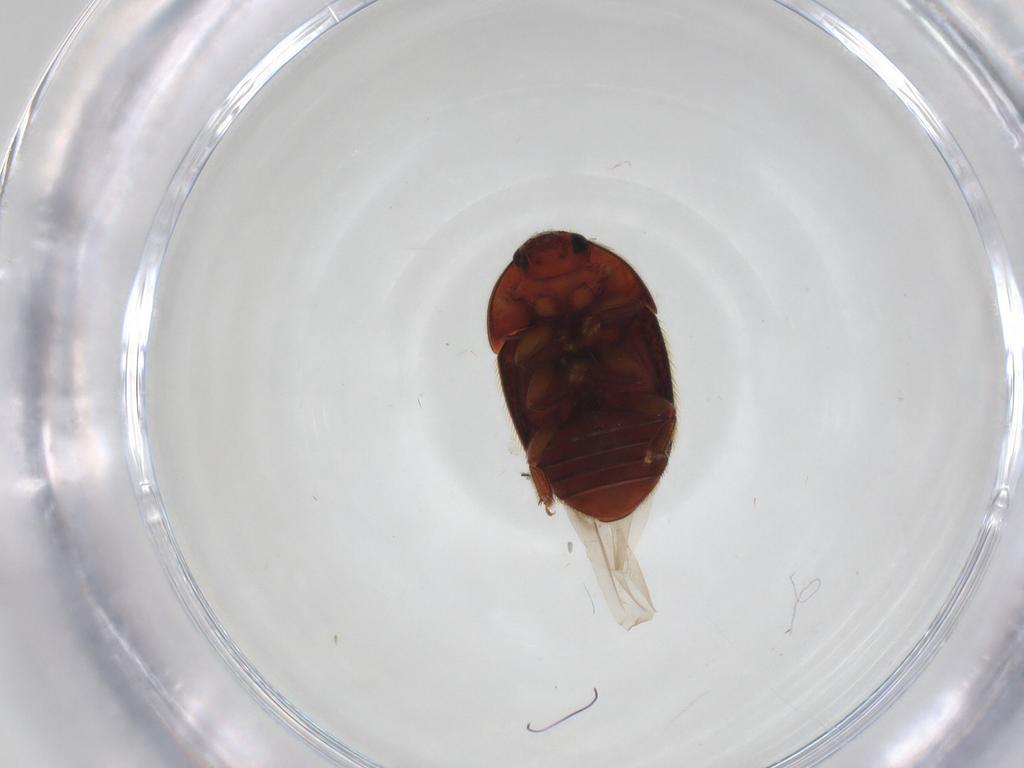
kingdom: Animalia
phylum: Arthropoda
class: Insecta
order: Coleoptera
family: Nitidulidae
